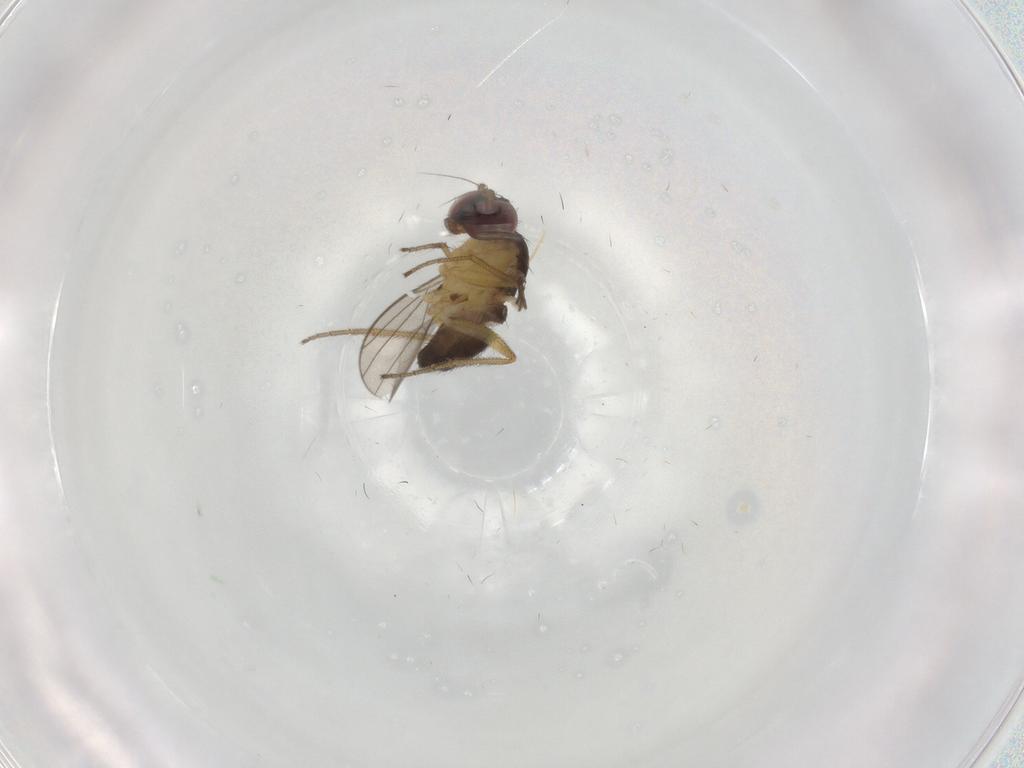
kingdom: Animalia
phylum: Arthropoda
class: Insecta
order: Diptera
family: Dolichopodidae
